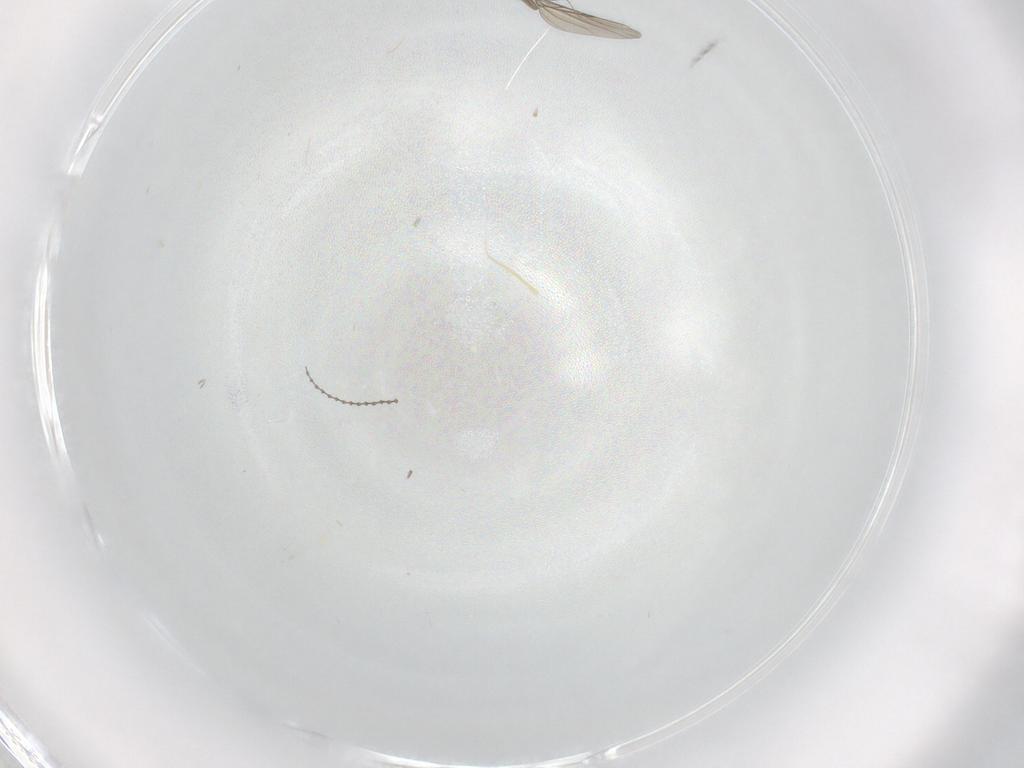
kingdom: Animalia
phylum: Arthropoda
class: Insecta
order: Diptera
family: Phoridae
